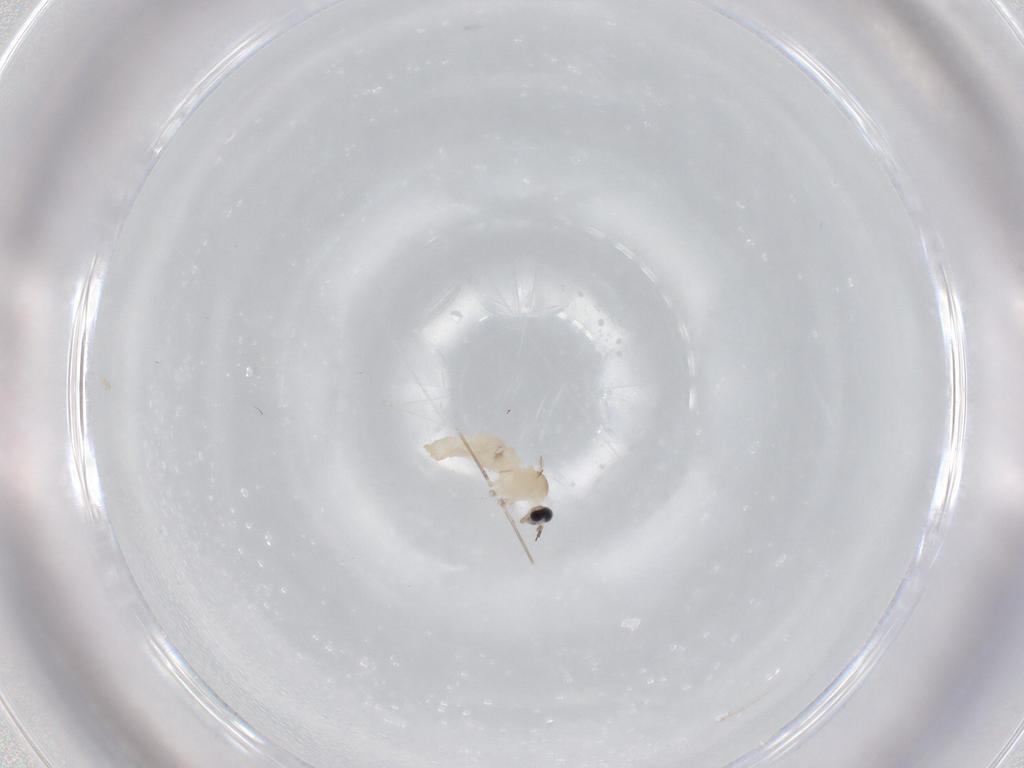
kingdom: Animalia
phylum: Arthropoda
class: Insecta
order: Diptera
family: Cecidomyiidae
